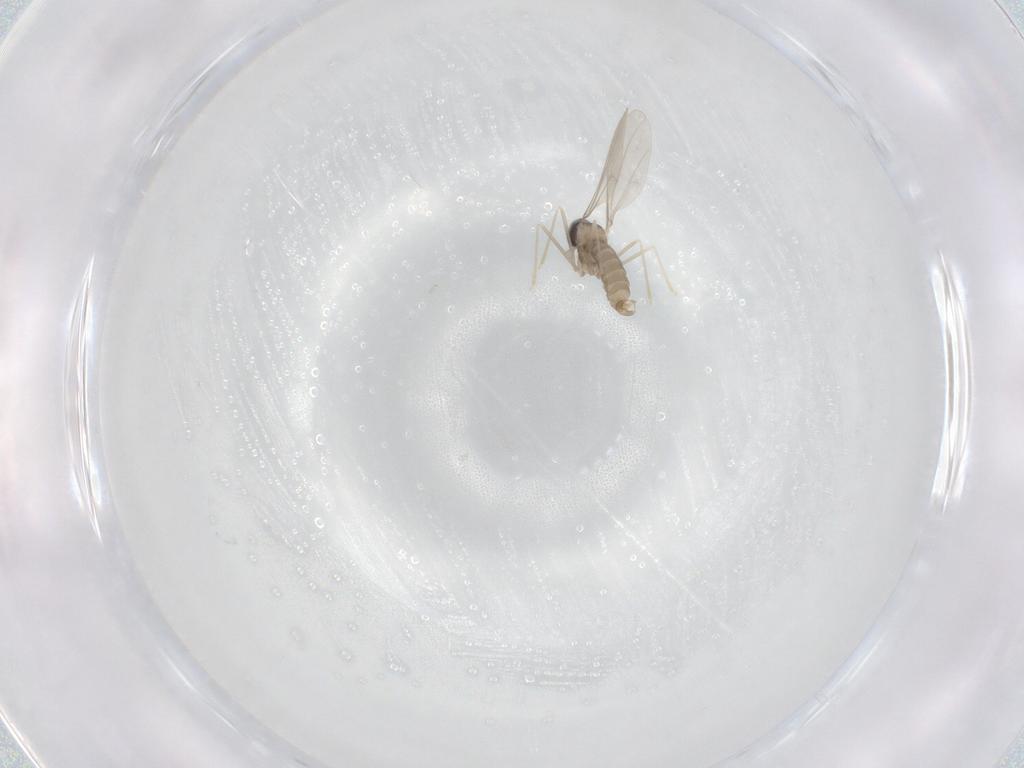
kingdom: Animalia
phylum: Arthropoda
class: Insecta
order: Diptera
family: Cecidomyiidae
